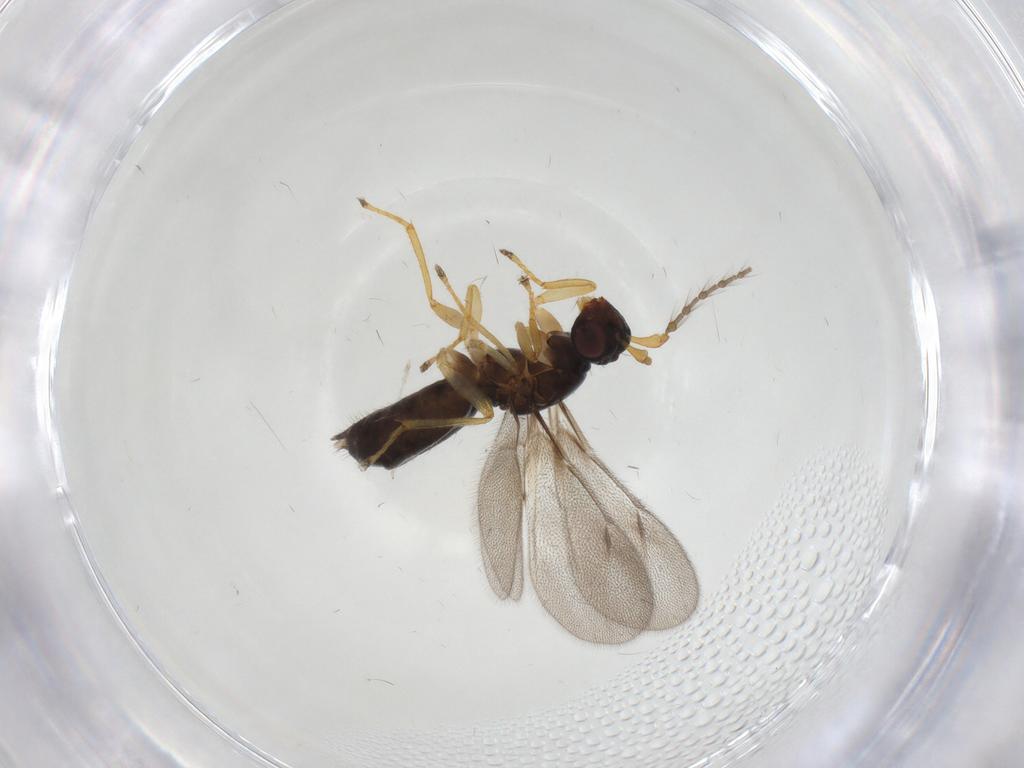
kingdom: Animalia
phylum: Arthropoda
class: Insecta
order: Hymenoptera
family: Eulophidae
